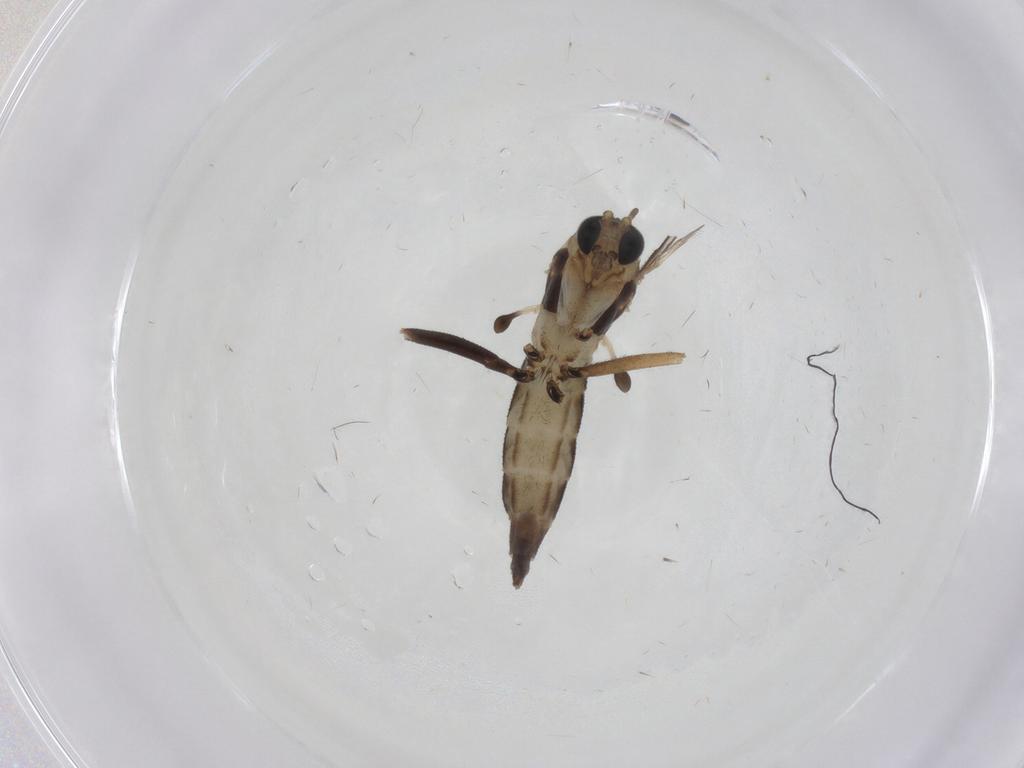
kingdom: Animalia
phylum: Arthropoda
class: Insecta
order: Diptera
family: Sciaridae
